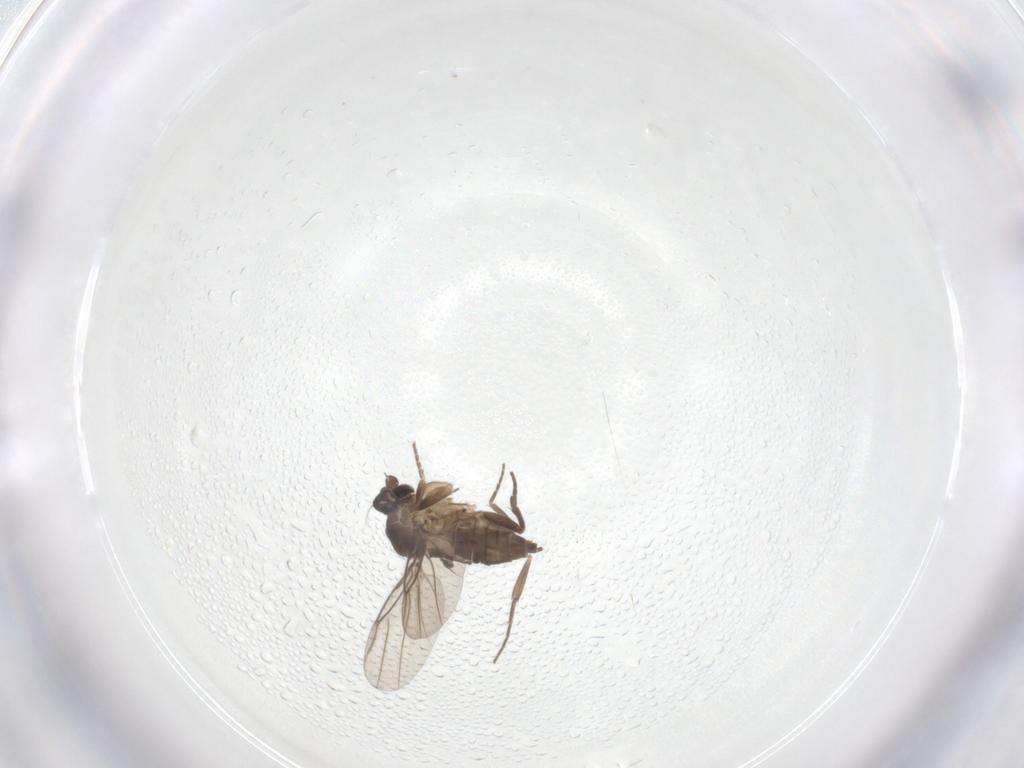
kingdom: Animalia
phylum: Arthropoda
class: Insecta
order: Diptera
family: Phoridae
